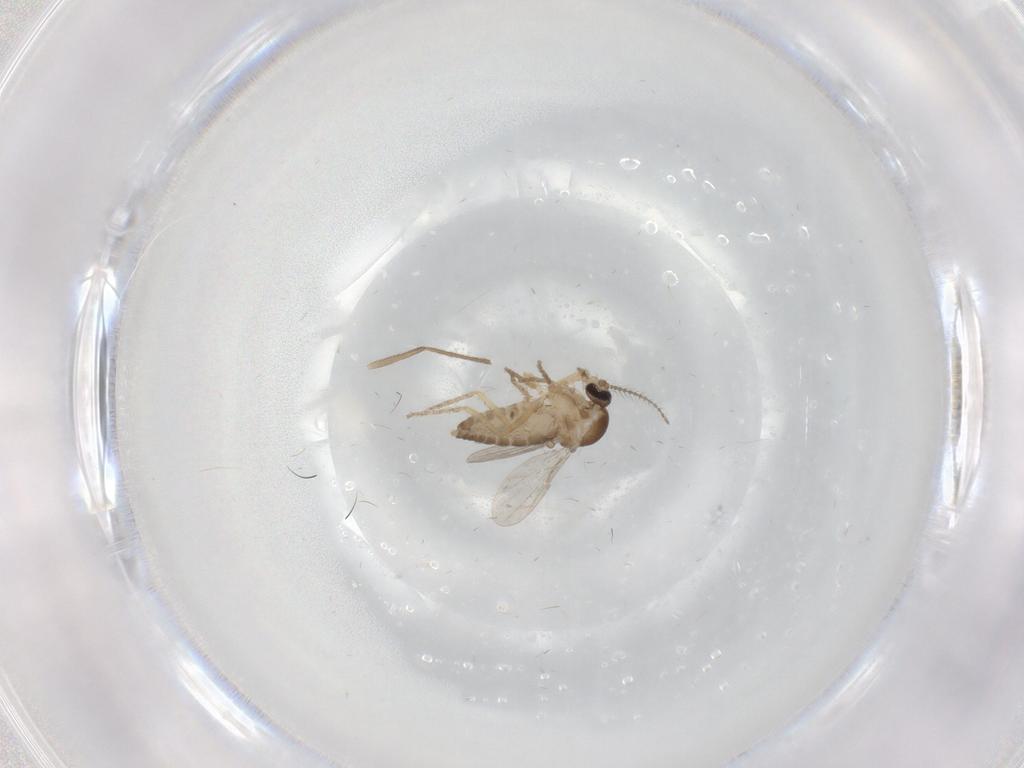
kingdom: Animalia
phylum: Arthropoda
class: Insecta
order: Diptera
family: Ceratopogonidae
